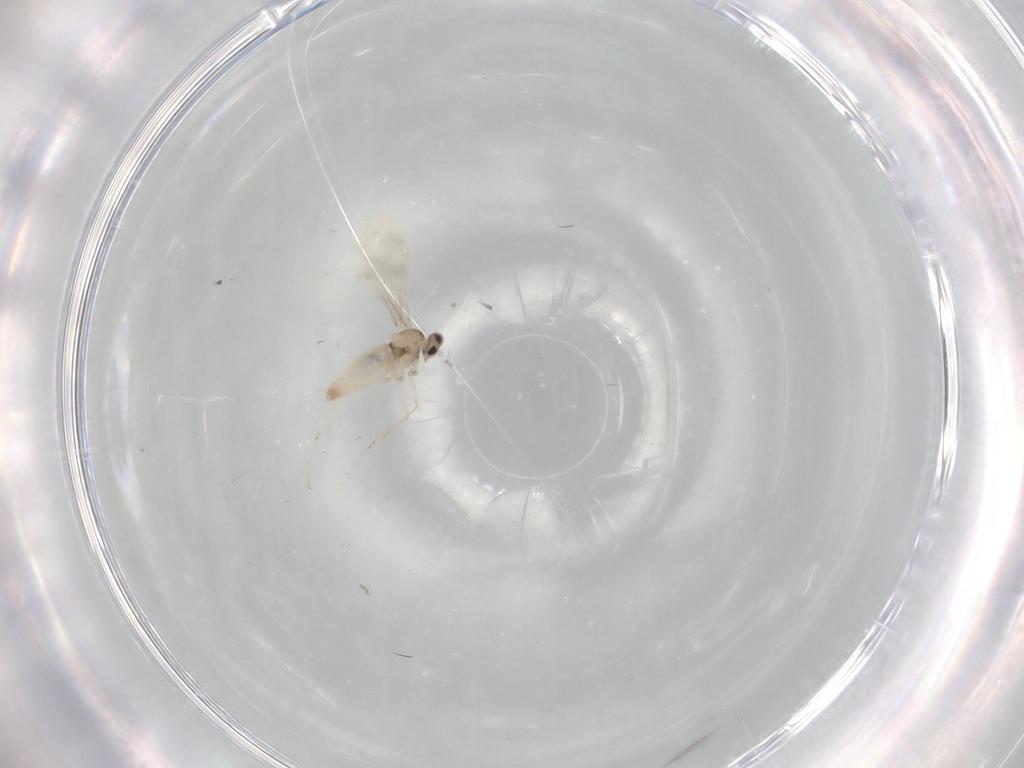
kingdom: Animalia
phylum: Arthropoda
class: Insecta
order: Diptera
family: Cecidomyiidae
